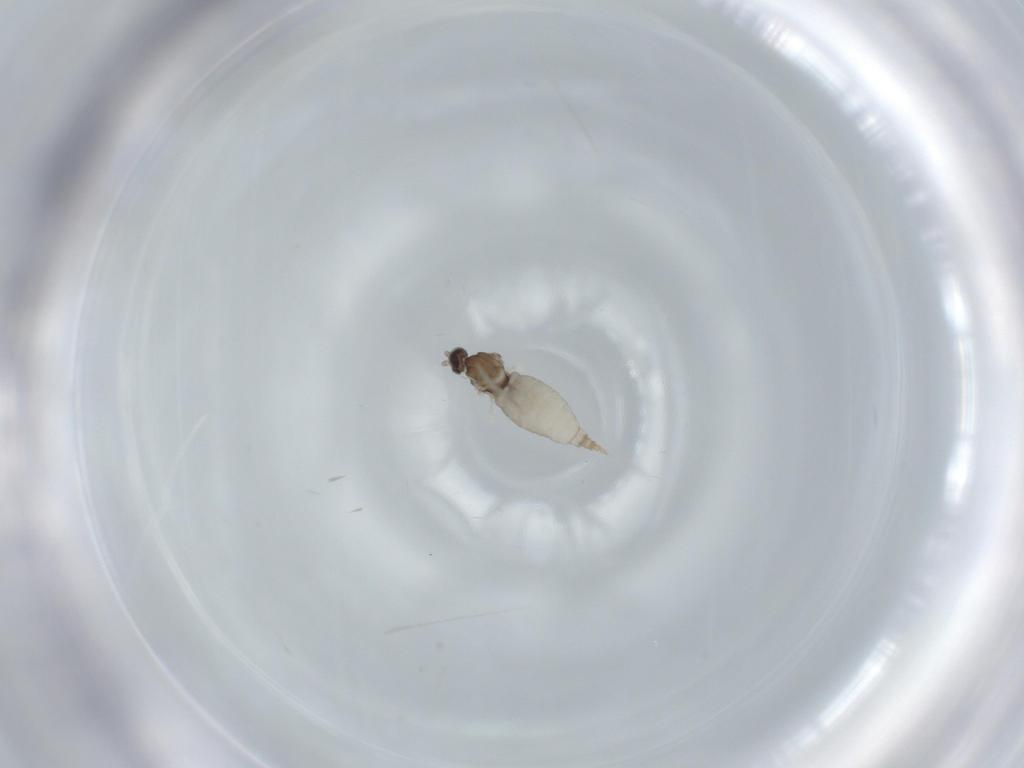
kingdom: Animalia
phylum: Arthropoda
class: Insecta
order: Diptera
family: Cecidomyiidae
